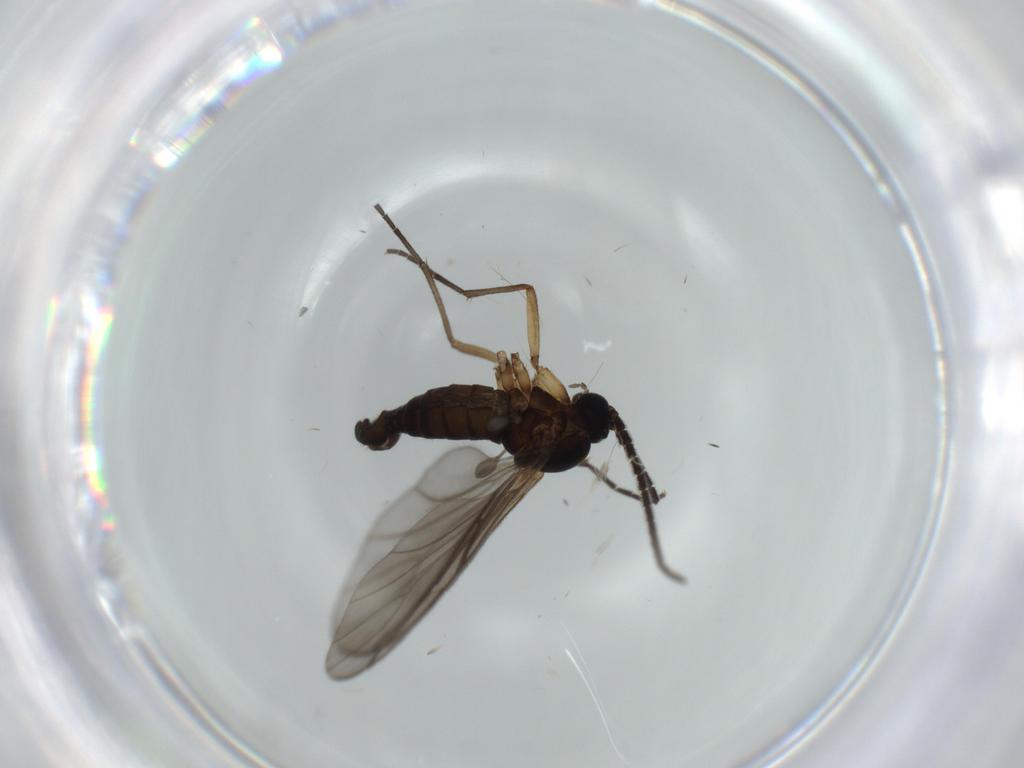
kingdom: Animalia
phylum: Arthropoda
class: Insecta
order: Diptera
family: Sciaridae
